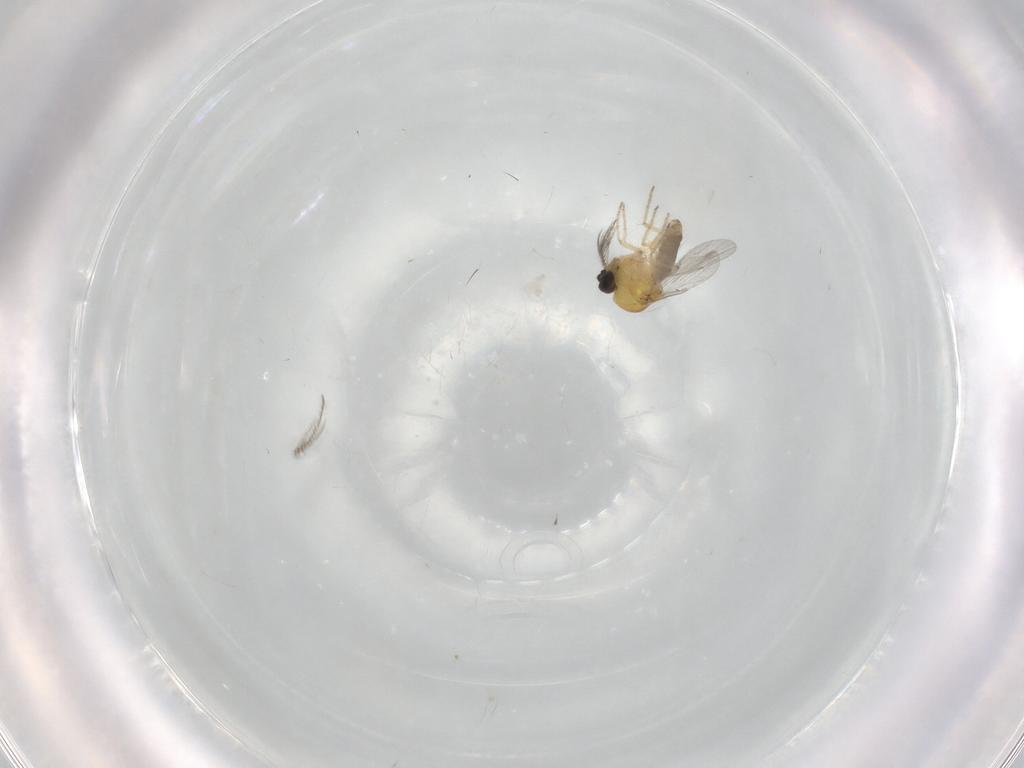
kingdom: Animalia
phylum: Arthropoda
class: Insecta
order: Diptera
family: Ceratopogonidae
